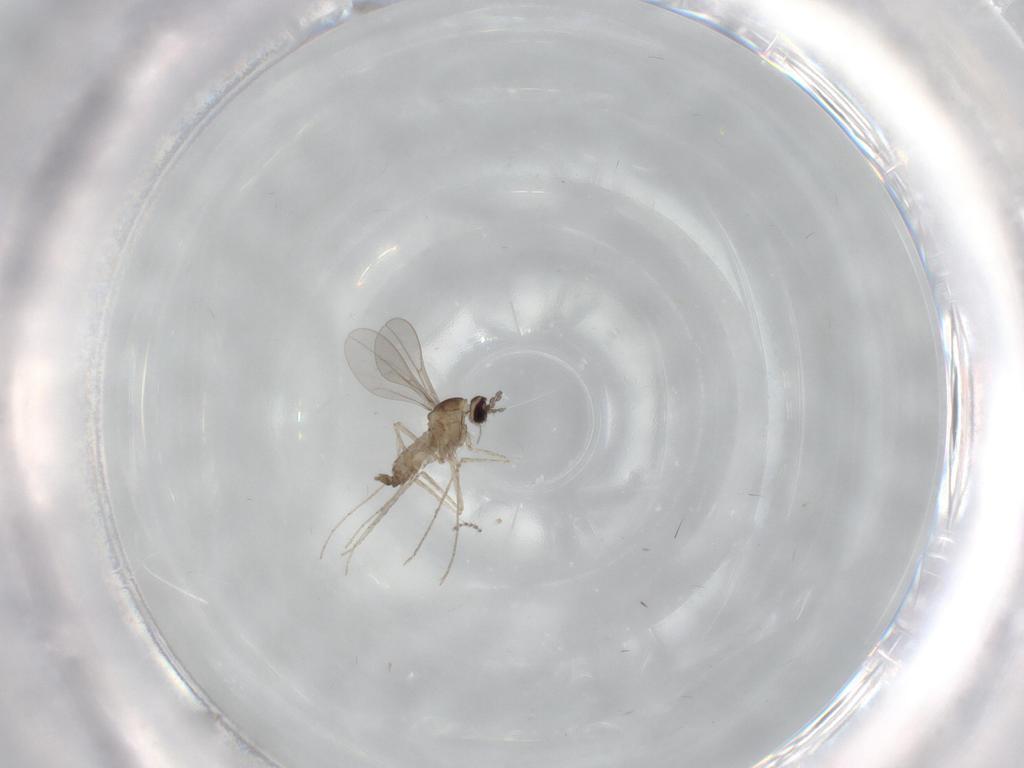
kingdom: Animalia
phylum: Arthropoda
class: Insecta
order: Diptera
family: Cecidomyiidae
